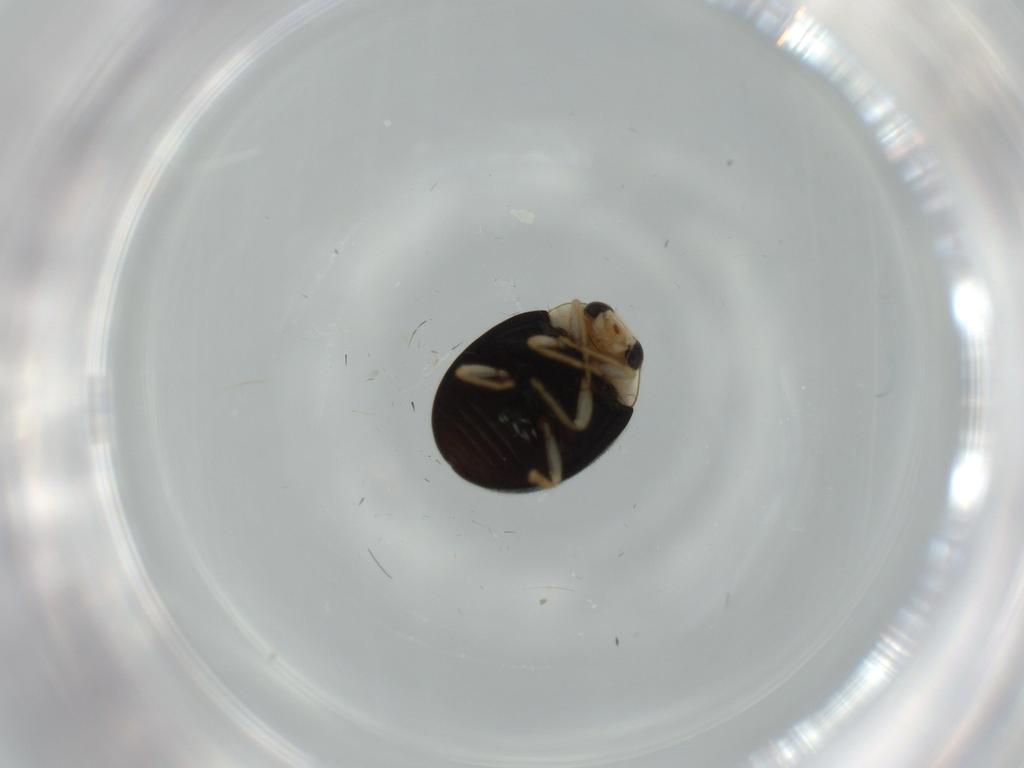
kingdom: Animalia
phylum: Arthropoda
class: Insecta
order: Coleoptera
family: Coccinellidae
